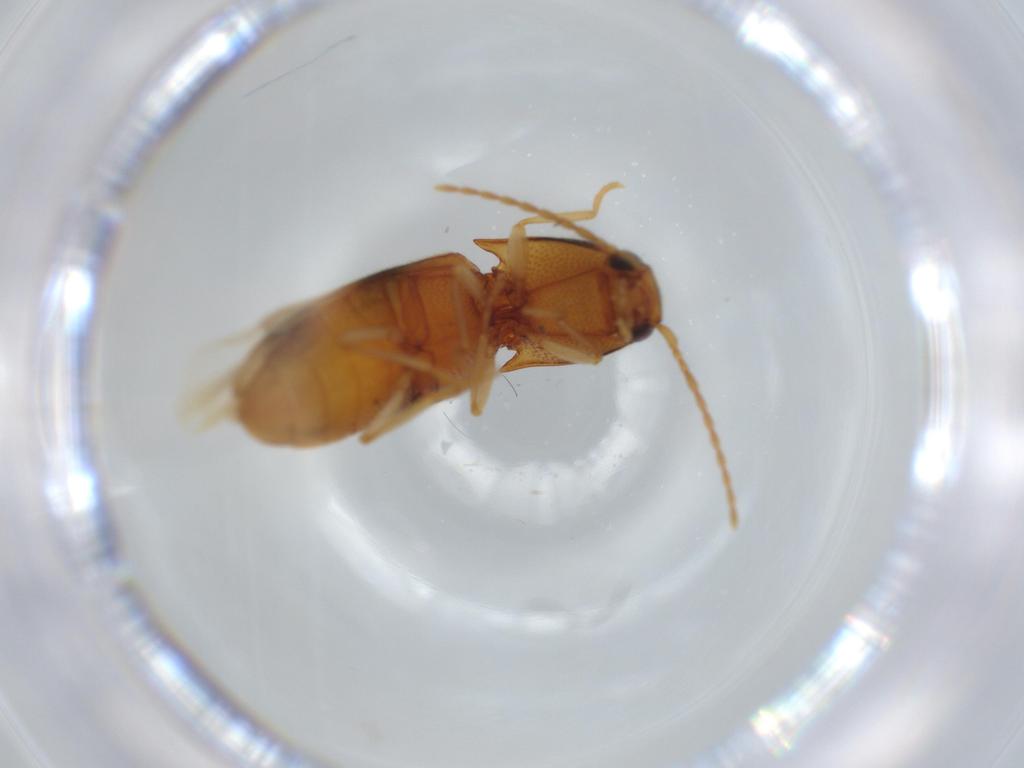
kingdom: Animalia
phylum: Arthropoda
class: Insecta
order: Coleoptera
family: Elateridae
